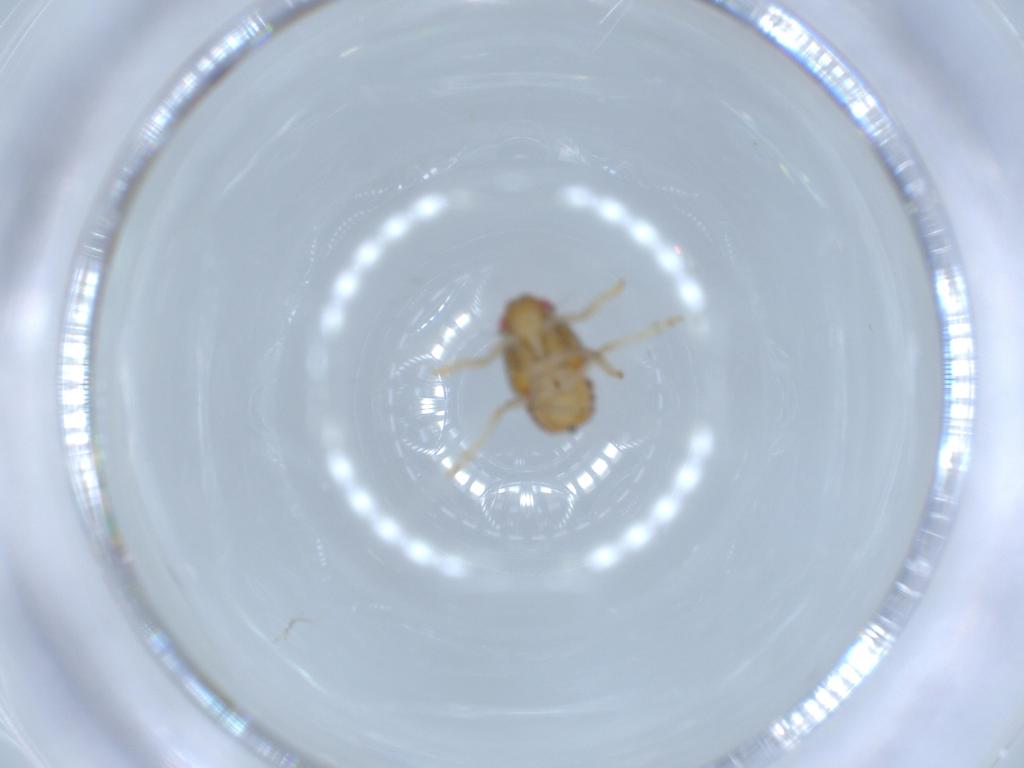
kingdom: Animalia
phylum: Arthropoda
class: Insecta
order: Hemiptera
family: Issidae
